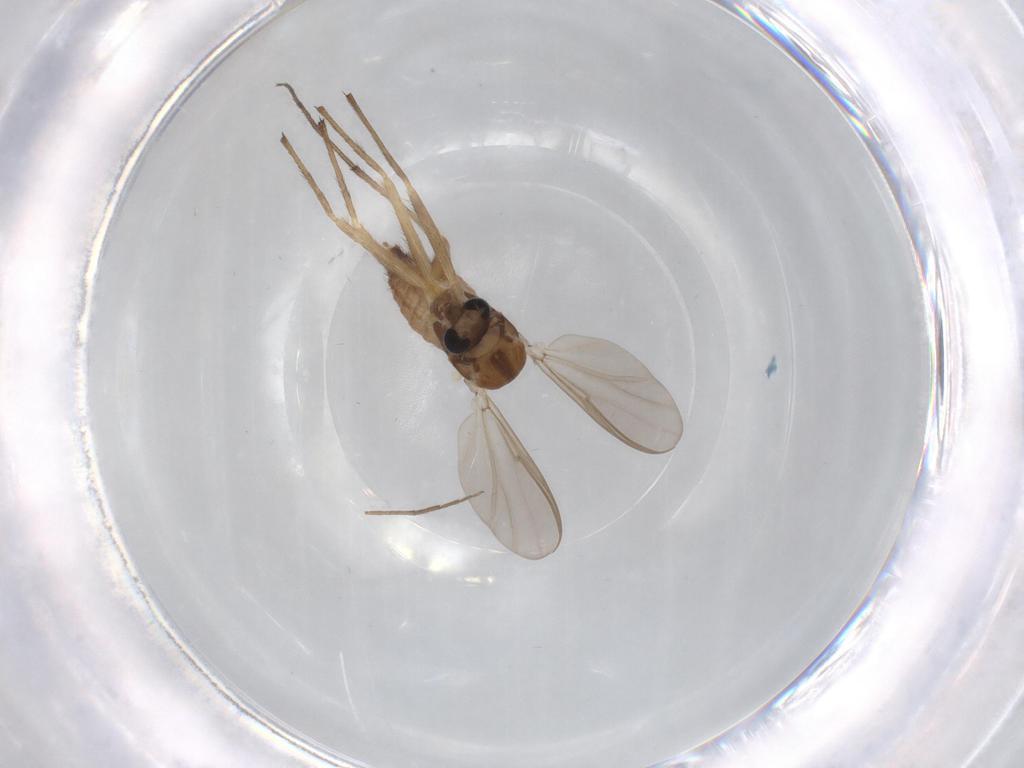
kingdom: Animalia
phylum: Arthropoda
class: Insecta
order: Diptera
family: Chironomidae
